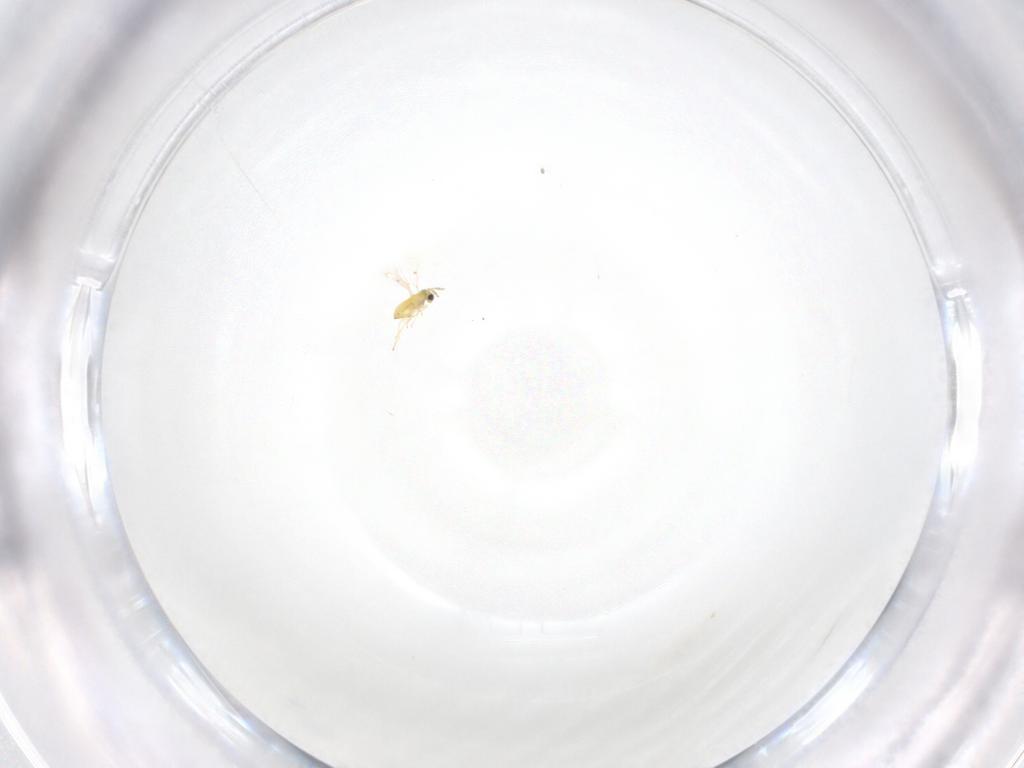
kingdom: Animalia
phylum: Arthropoda
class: Insecta
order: Hymenoptera
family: Trichogrammatidae
